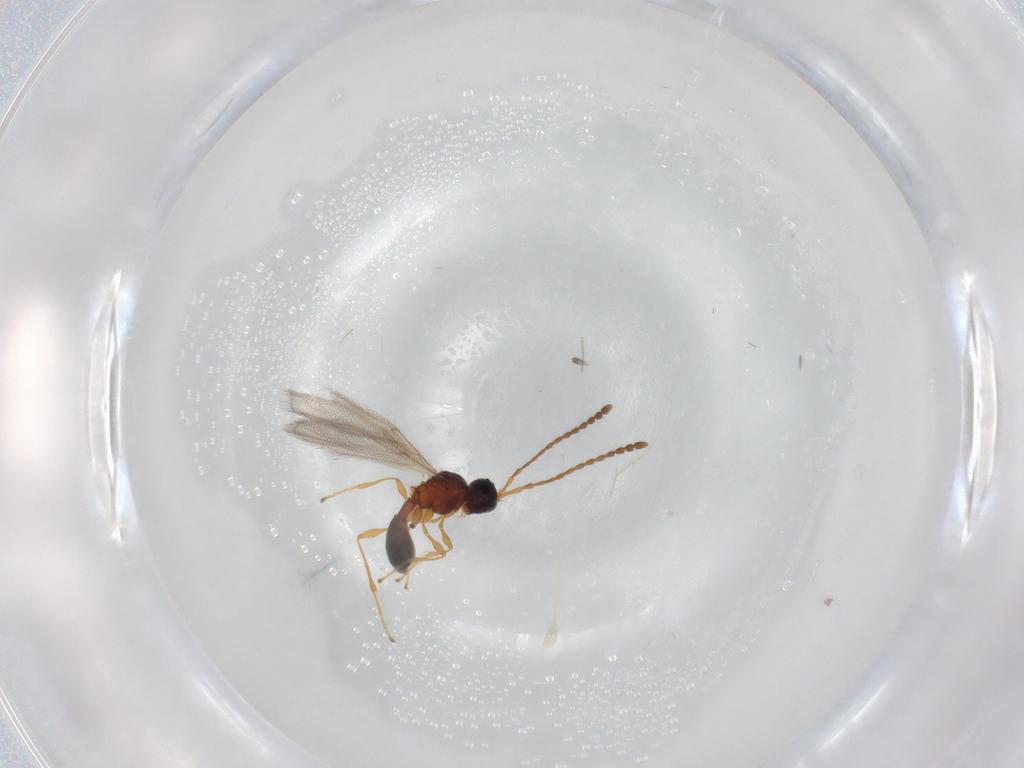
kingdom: Animalia
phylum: Arthropoda
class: Insecta
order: Hymenoptera
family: Diapriidae
